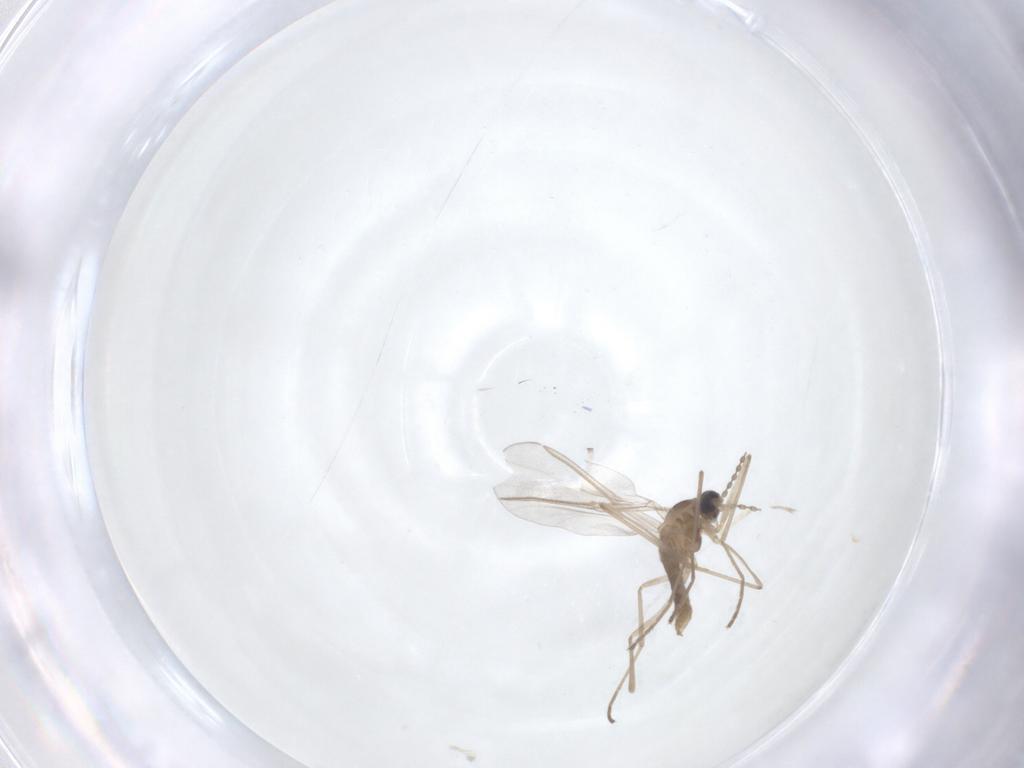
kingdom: Animalia
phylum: Arthropoda
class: Insecta
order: Diptera
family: Cecidomyiidae
